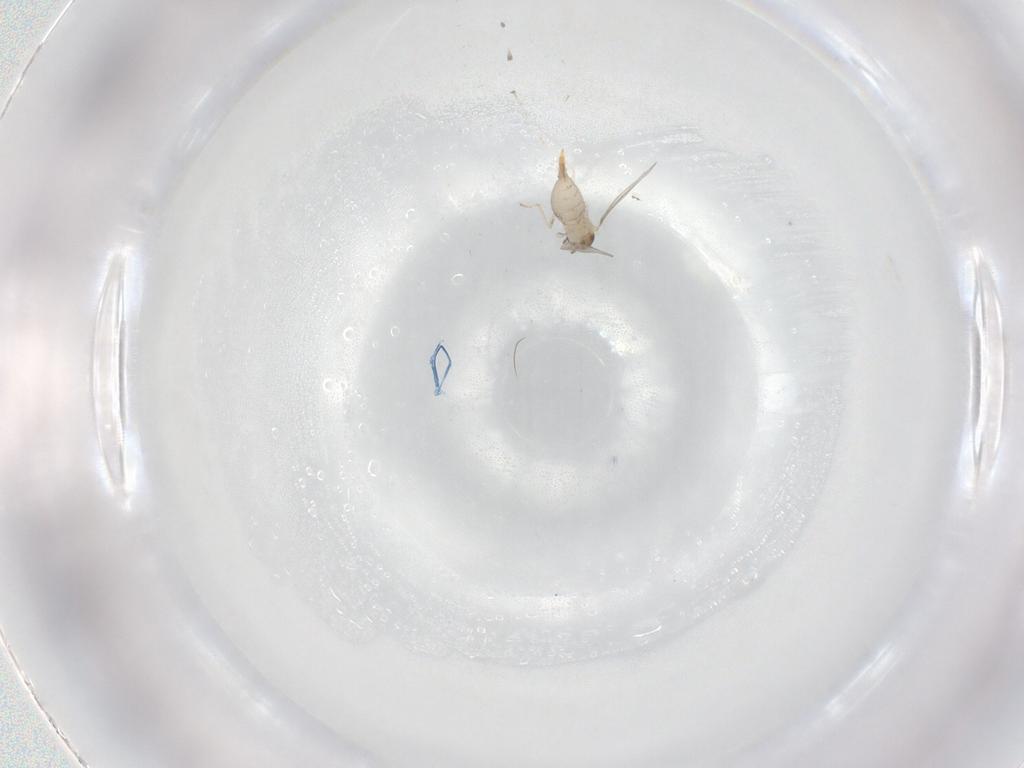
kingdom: Animalia
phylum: Arthropoda
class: Insecta
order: Diptera
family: Cecidomyiidae
